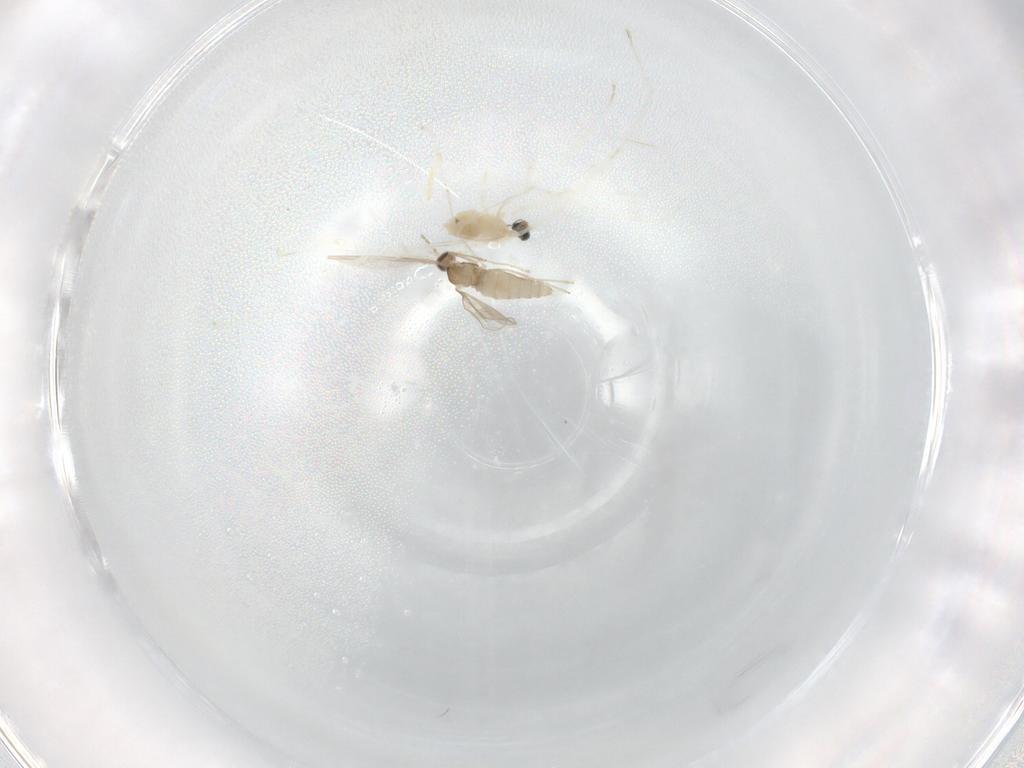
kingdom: Animalia
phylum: Arthropoda
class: Insecta
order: Diptera
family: Cecidomyiidae
